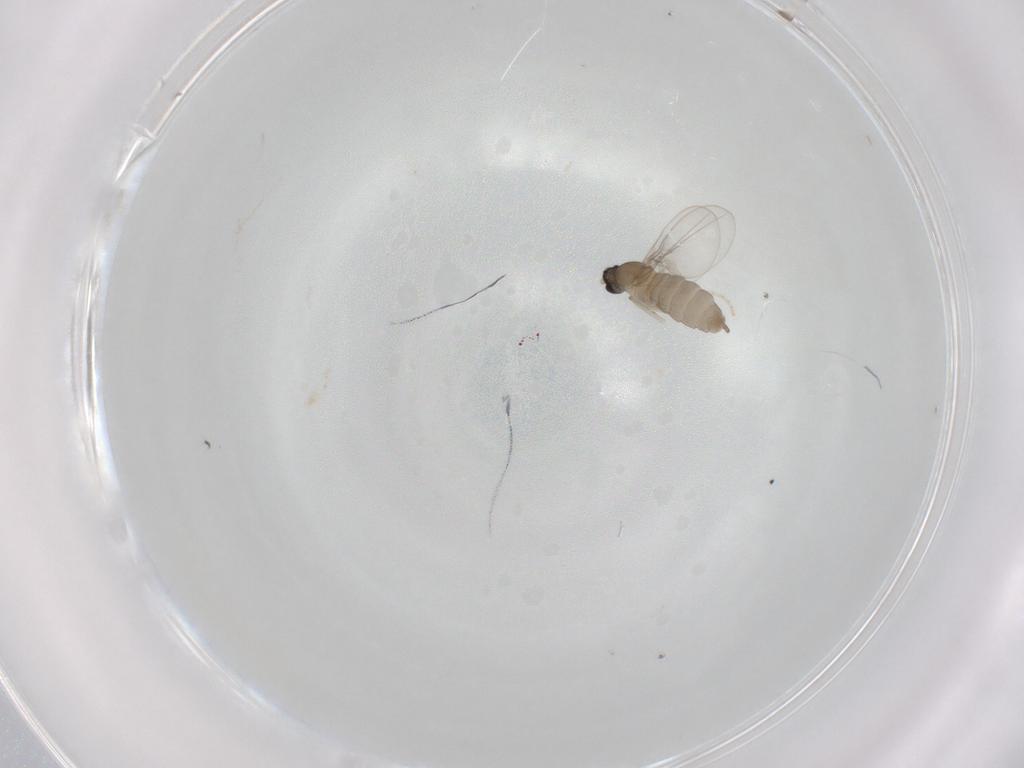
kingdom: Animalia
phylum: Arthropoda
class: Insecta
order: Diptera
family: Cecidomyiidae
